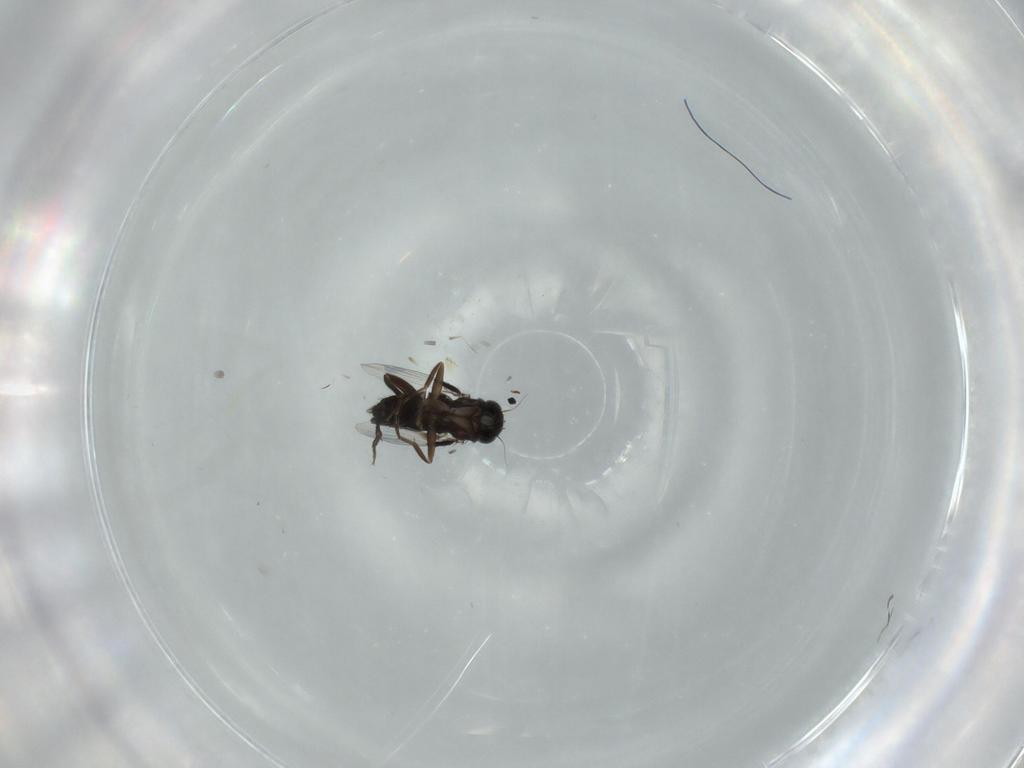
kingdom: Animalia
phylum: Arthropoda
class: Insecta
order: Diptera
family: Phoridae
